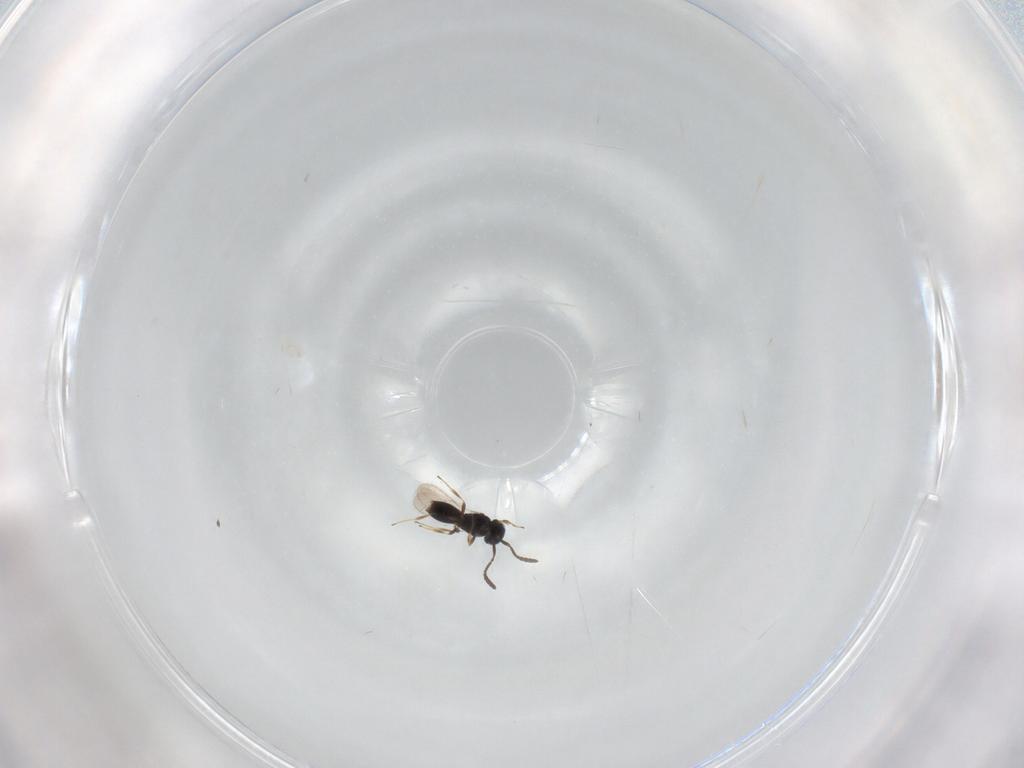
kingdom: Animalia
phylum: Arthropoda
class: Insecta
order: Hymenoptera
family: Scelionidae
